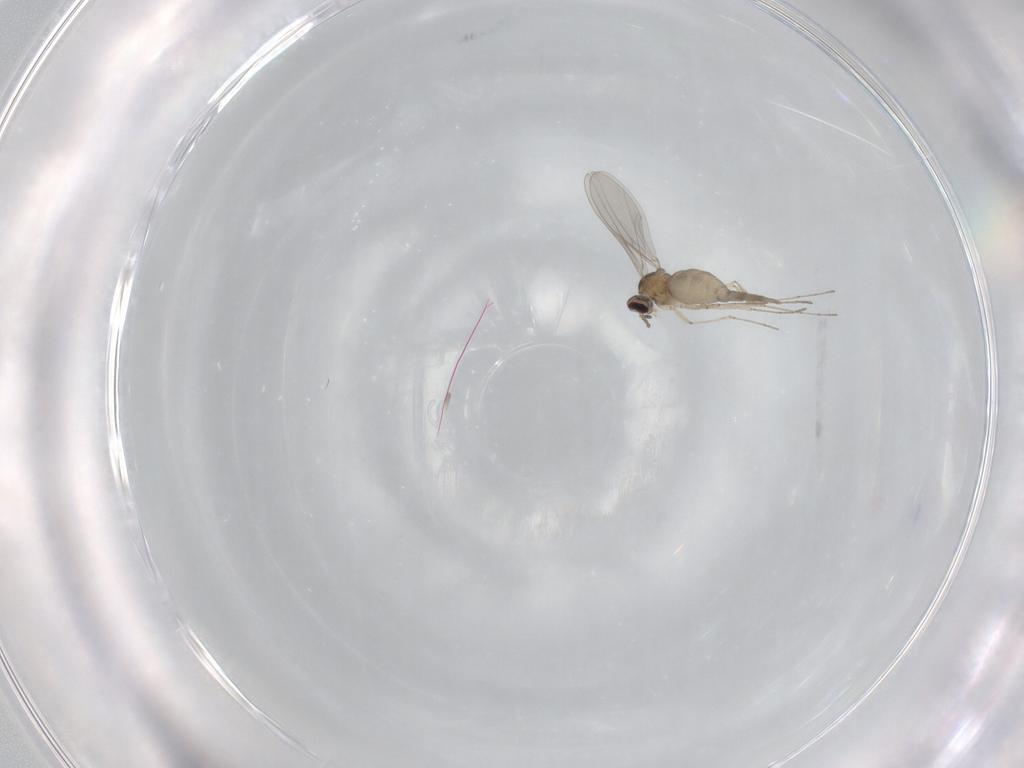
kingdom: Animalia
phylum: Arthropoda
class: Insecta
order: Diptera
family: Cecidomyiidae
